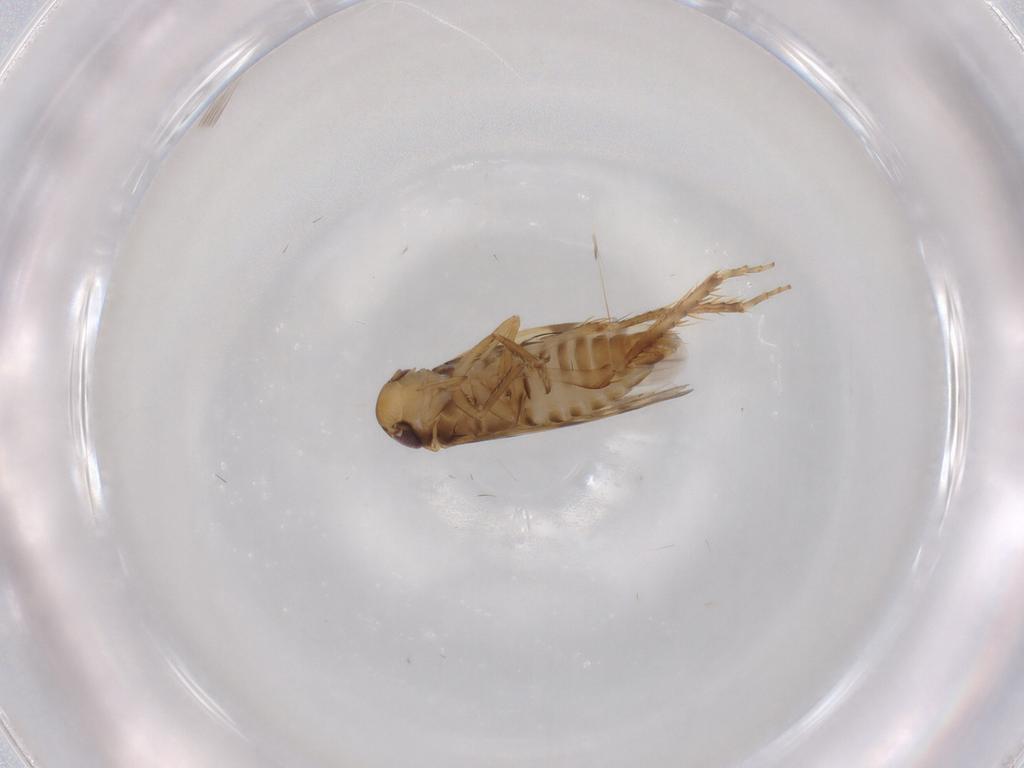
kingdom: Animalia
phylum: Arthropoda
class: Insecta
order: Hemiptera
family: Cicadellidae
